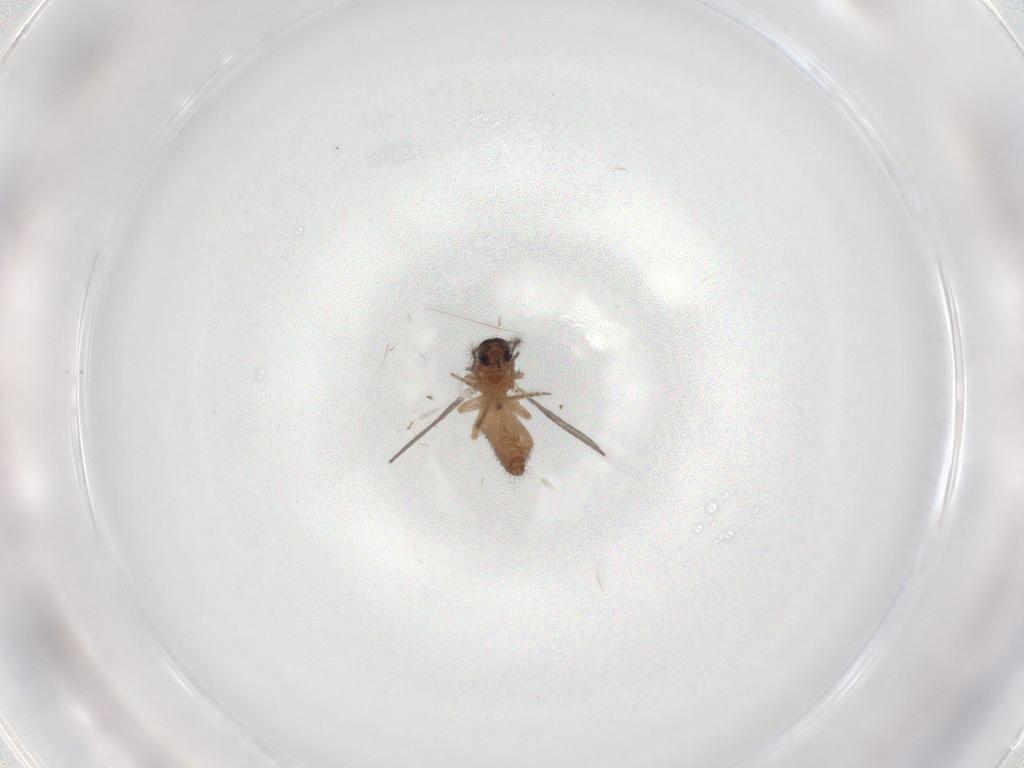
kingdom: Animalia
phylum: Arthropoda
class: Insecta
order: Diptera
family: Ceratopogonidae
